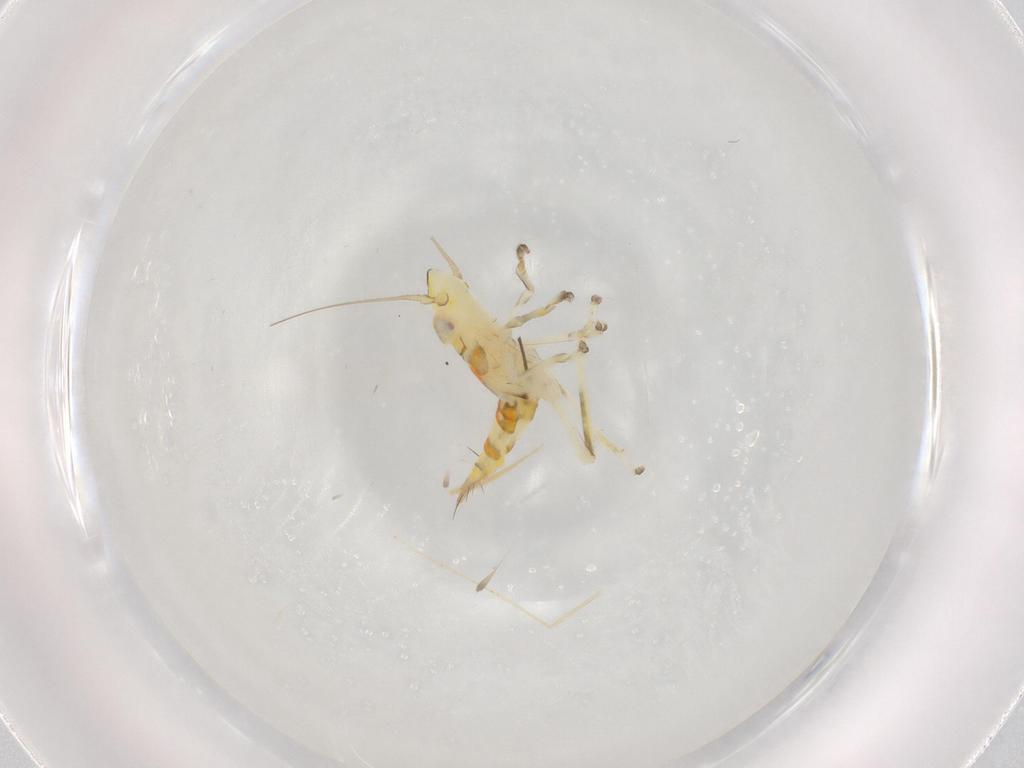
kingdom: Animalia
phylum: Arthropoda
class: Insecta
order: Hemiptera
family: Cicadellidae
